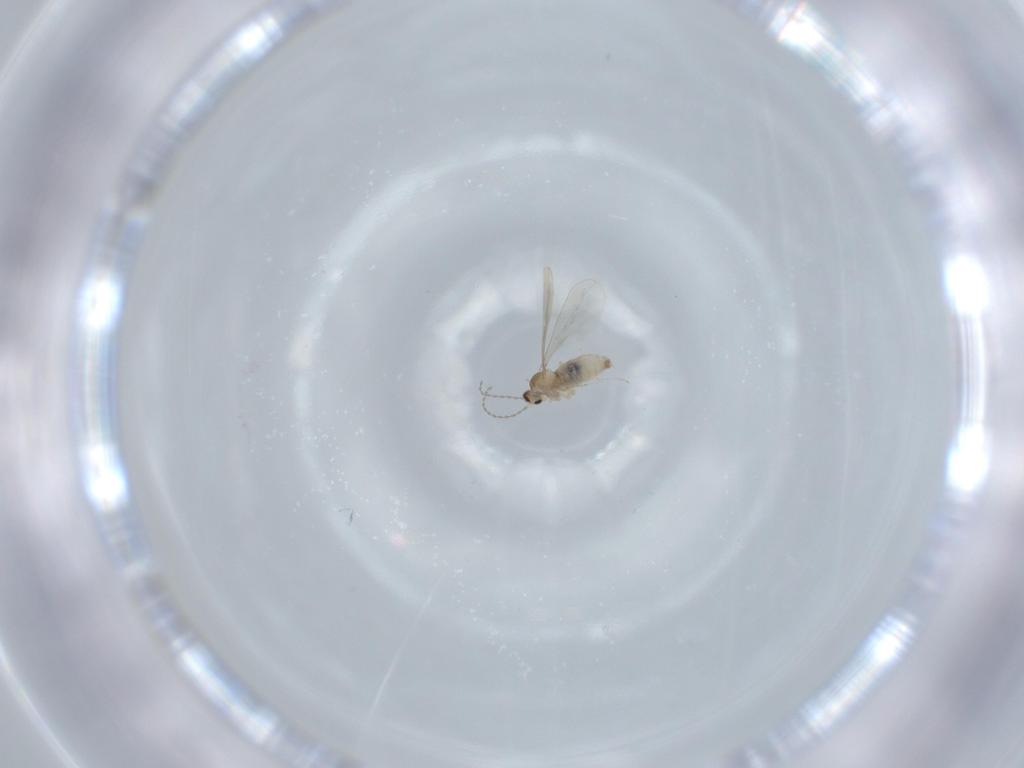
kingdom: Animalia
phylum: Arthropoda
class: Insecta
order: Diptera
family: Cecidomyiidae
